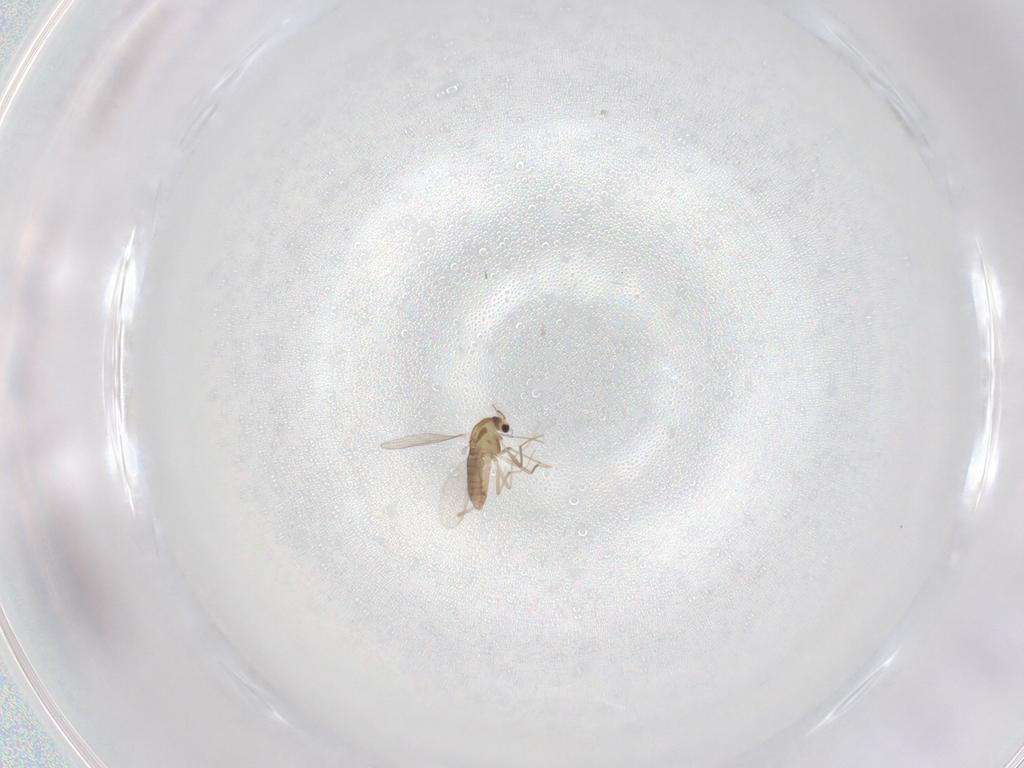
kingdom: Animalia
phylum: Arthropoda
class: Insecta
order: Diptera
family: Chironomidae
